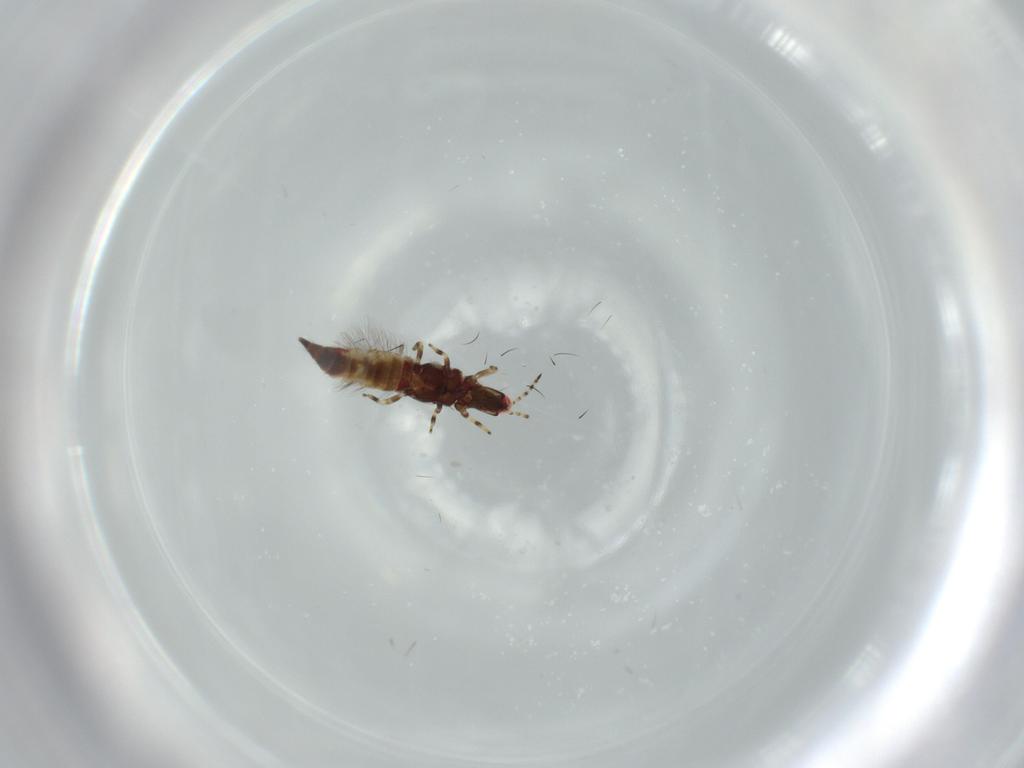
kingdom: Animalia
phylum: Arthropoda
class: Insecta
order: Thysanoptera
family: Phlaeothripidae
